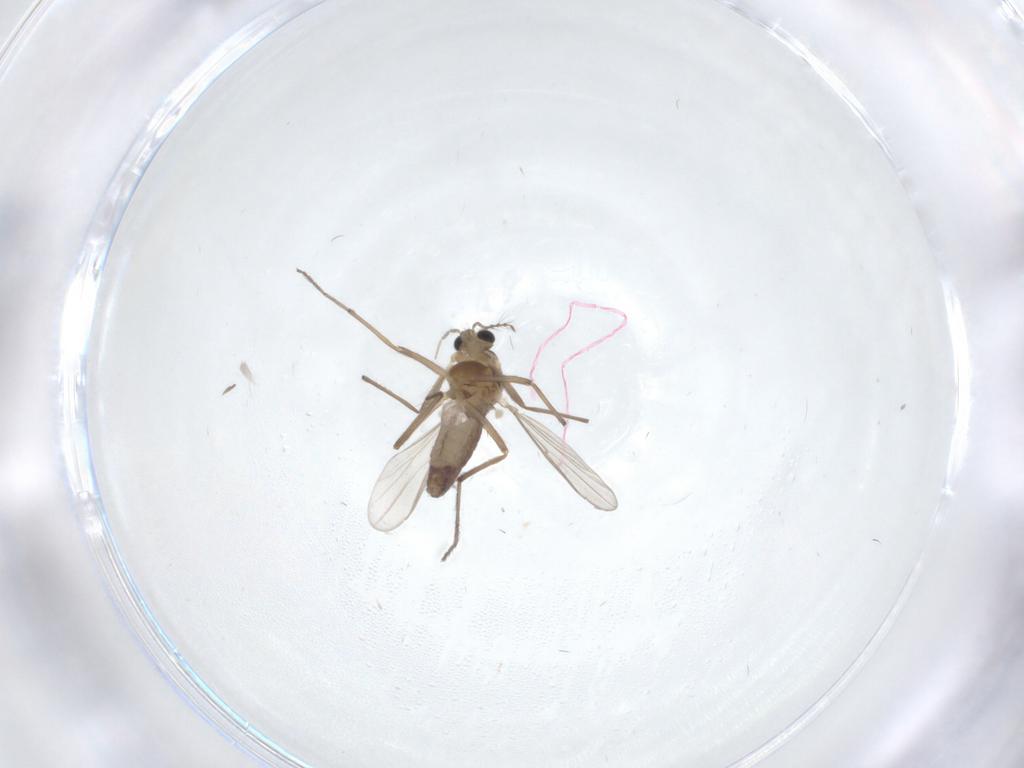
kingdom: Animalia
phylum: Arthropoda
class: Insecta
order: Diptera
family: Chironomidae
